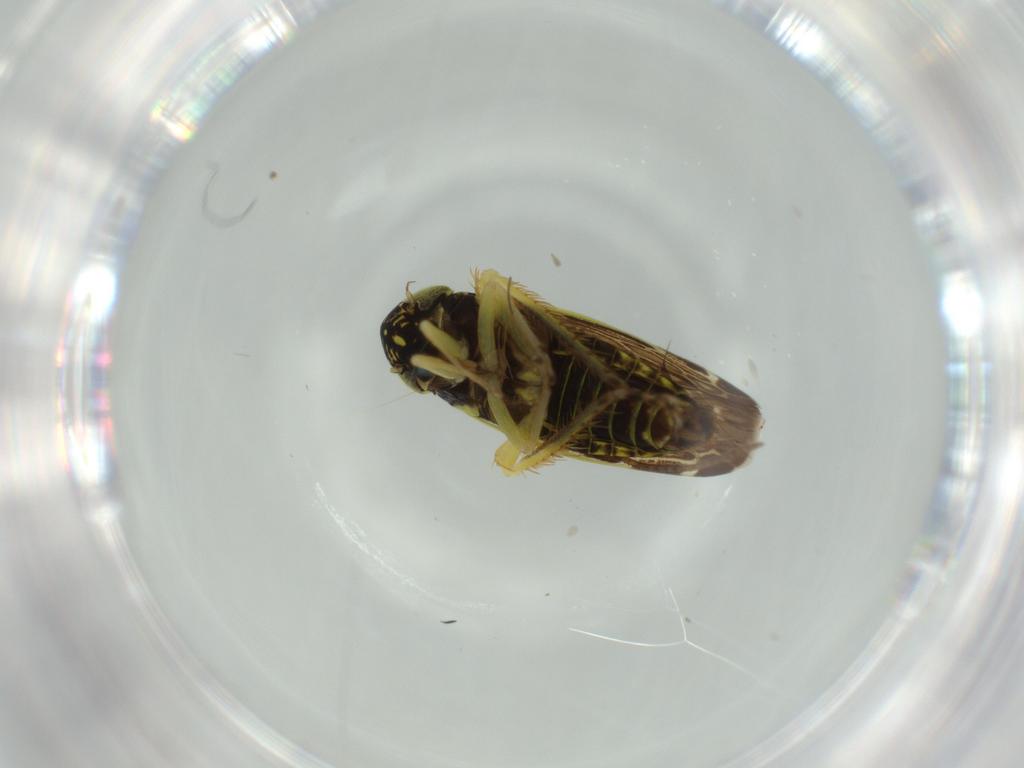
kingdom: Animalia
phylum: Arthropoda
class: Insecta
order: Hemiptera
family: Cicadellidae
